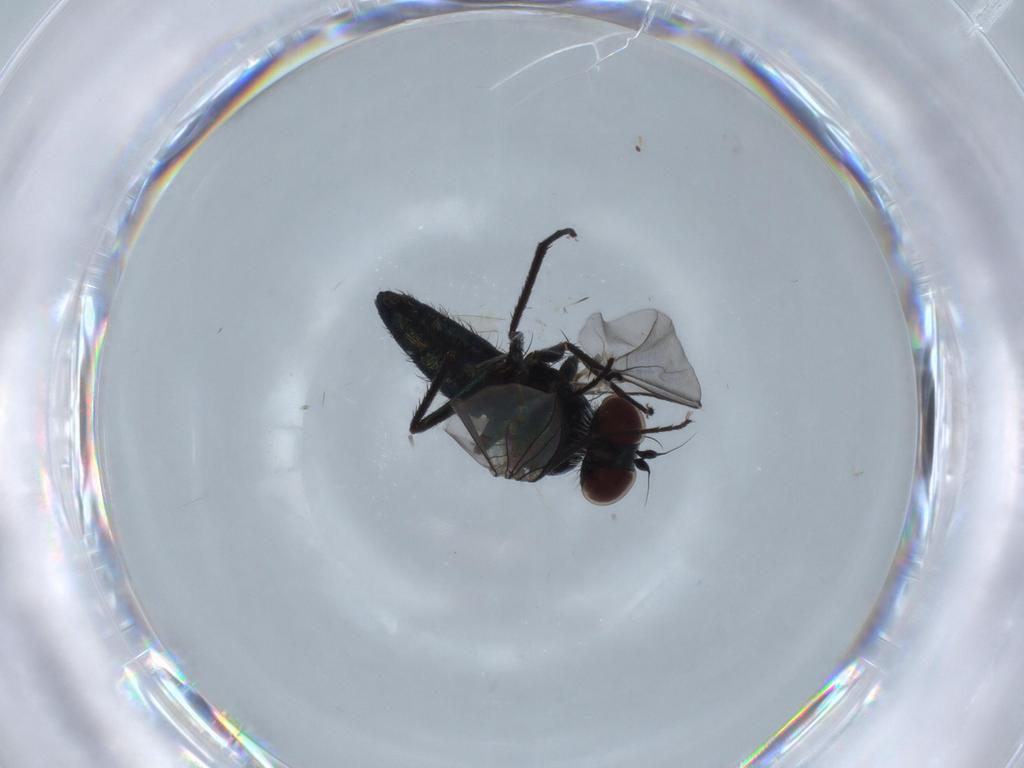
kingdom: Animalia
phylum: Arthropoda
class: Insecta
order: Diptera
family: Dolichopodidae
